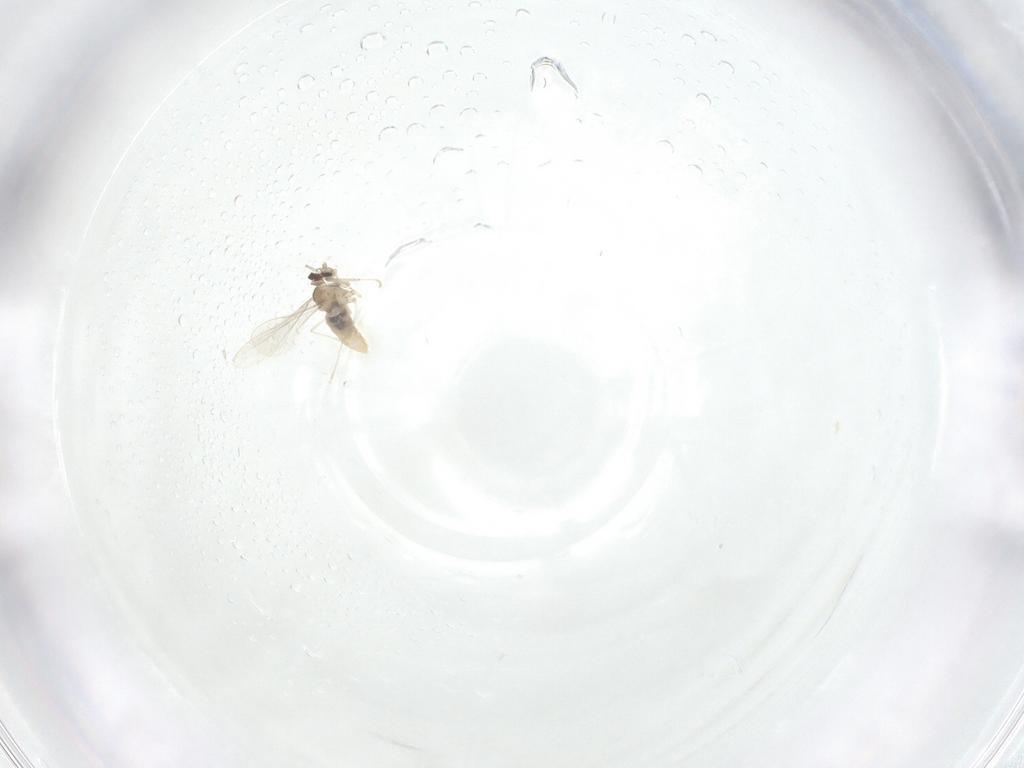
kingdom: Animalia
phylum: Arthropoda
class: Insecta
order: Diptera
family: Cecidomyiidae
